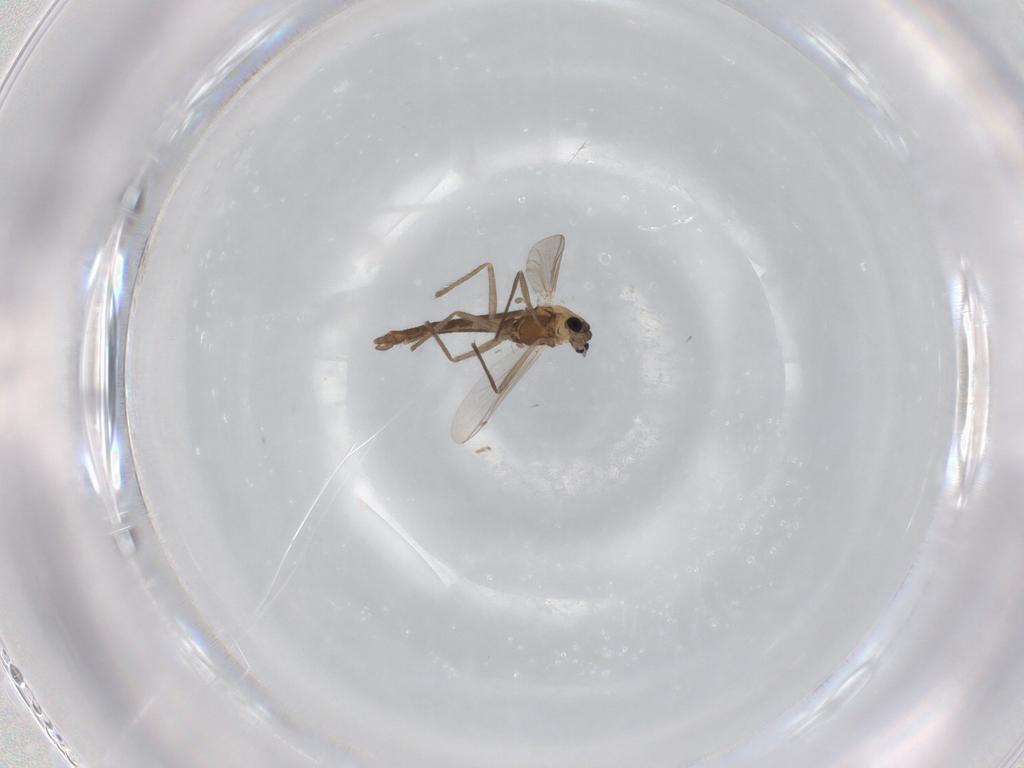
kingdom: Animalia
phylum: Arthropoda
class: Insecta
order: Diptera
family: Chironomidae
